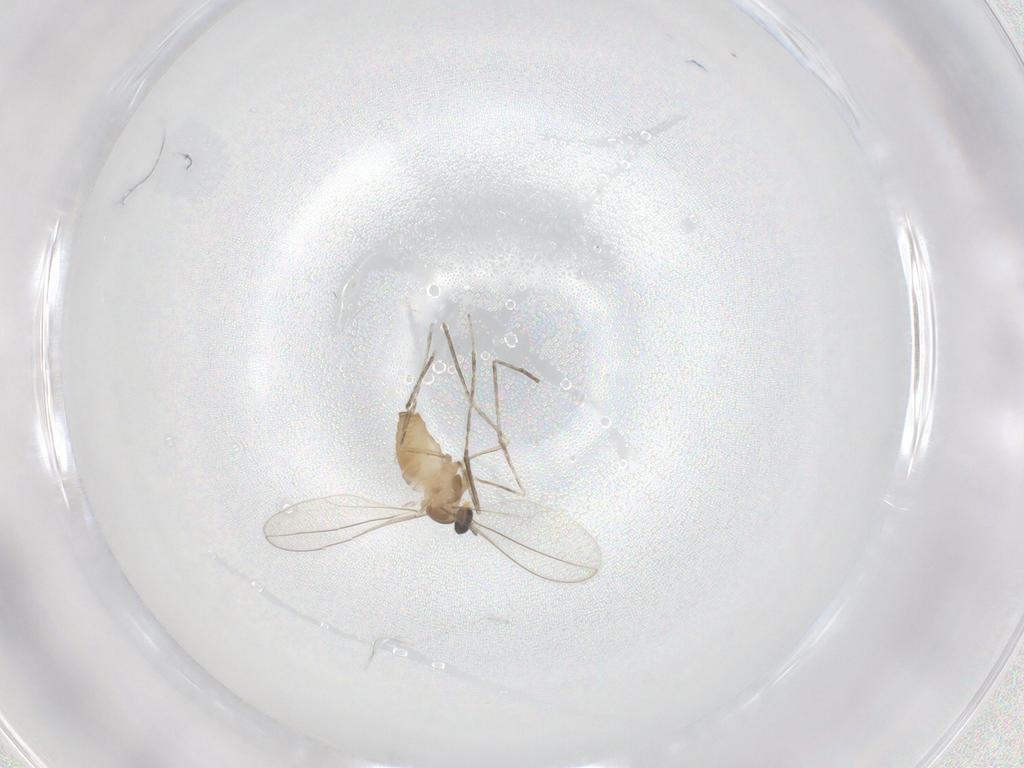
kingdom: Animalia
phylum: Arthropoda
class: Insecta
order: Diptera
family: Cecidomyiidae
